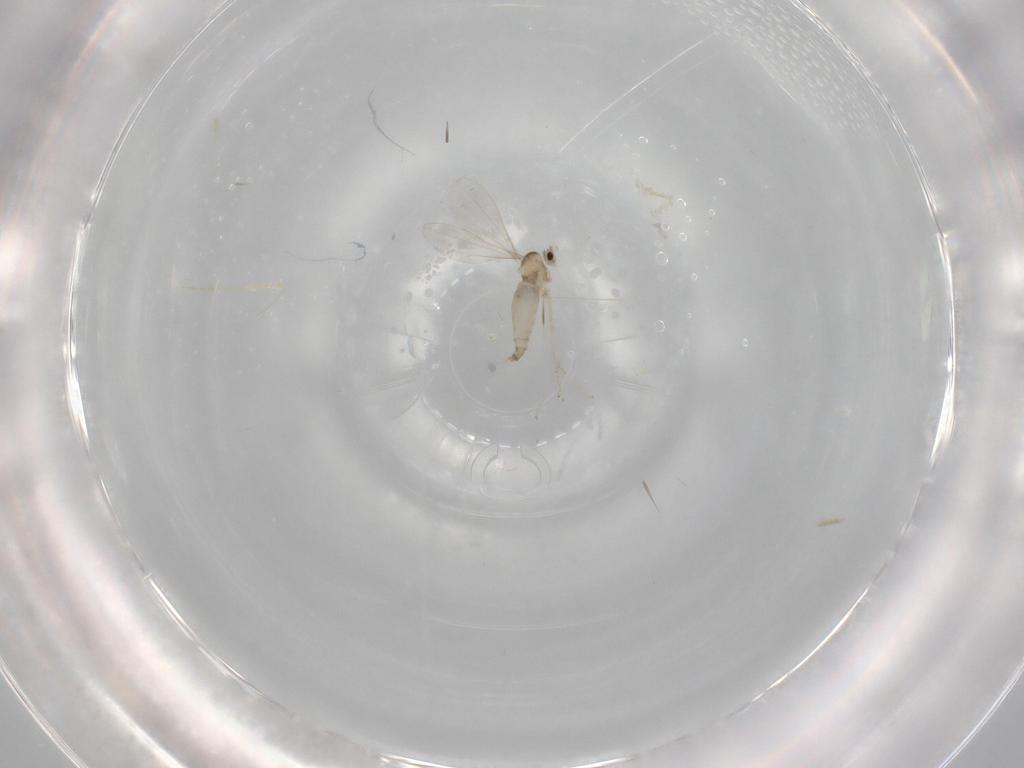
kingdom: Animalia
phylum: Arthropoda
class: Insecta
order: Diptera
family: Cecidomyiidae
